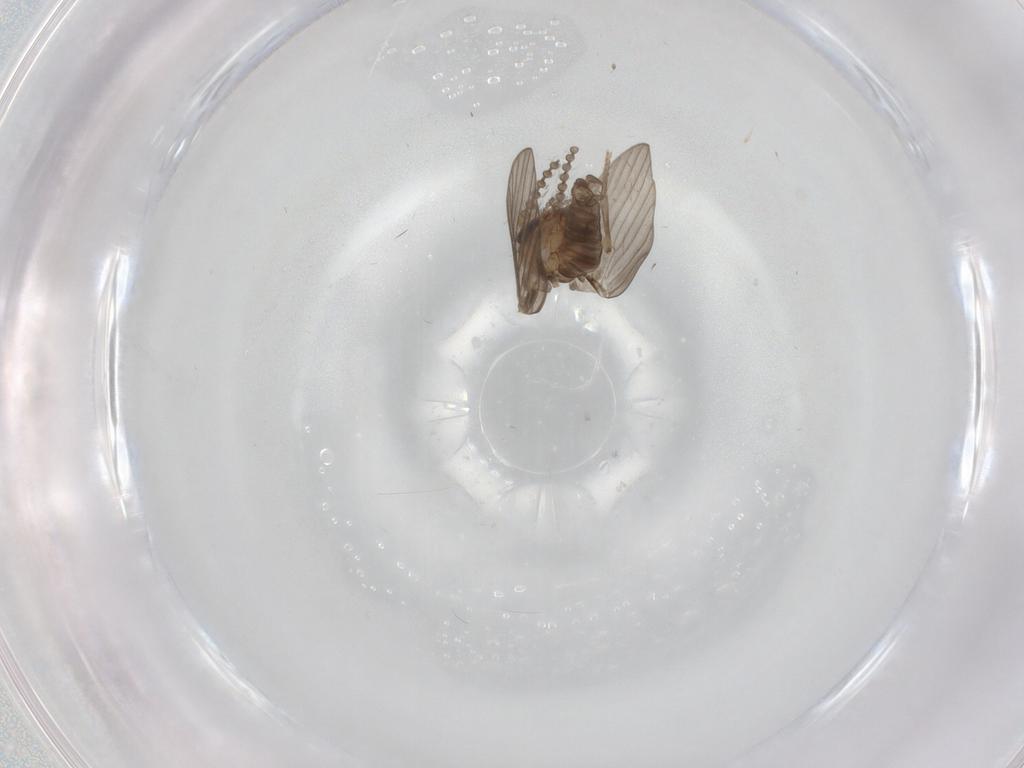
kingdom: Animalia
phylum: Arthropoda
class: Insecta
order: Diptera
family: Psychodidae
